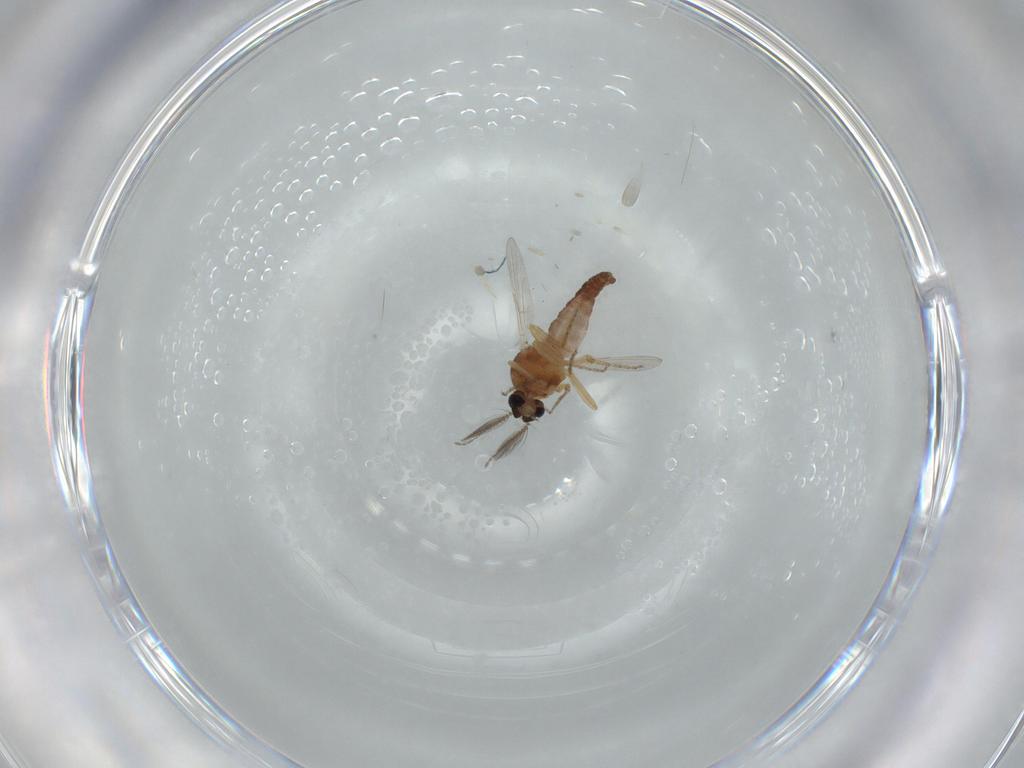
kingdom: Animalia
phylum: Arthropoda
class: Insecta
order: Diptera
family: Ceratopogonidae
